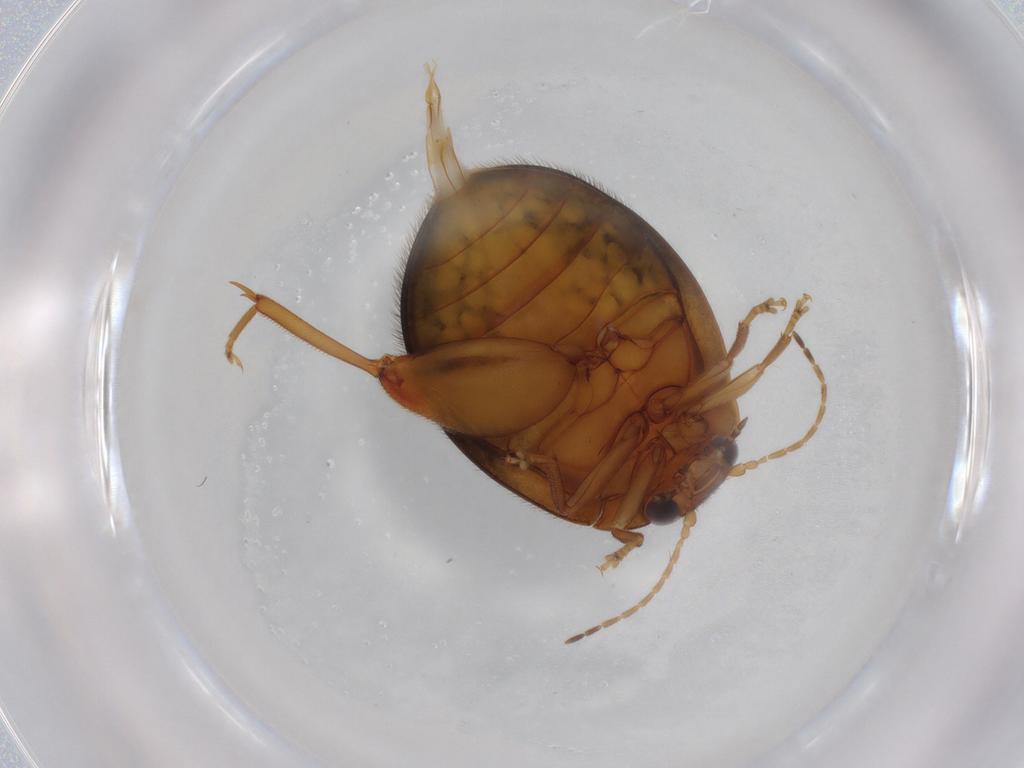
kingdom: Animalia
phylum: Arthropoda
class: Insecta
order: Coleoptera
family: Scirtidae
